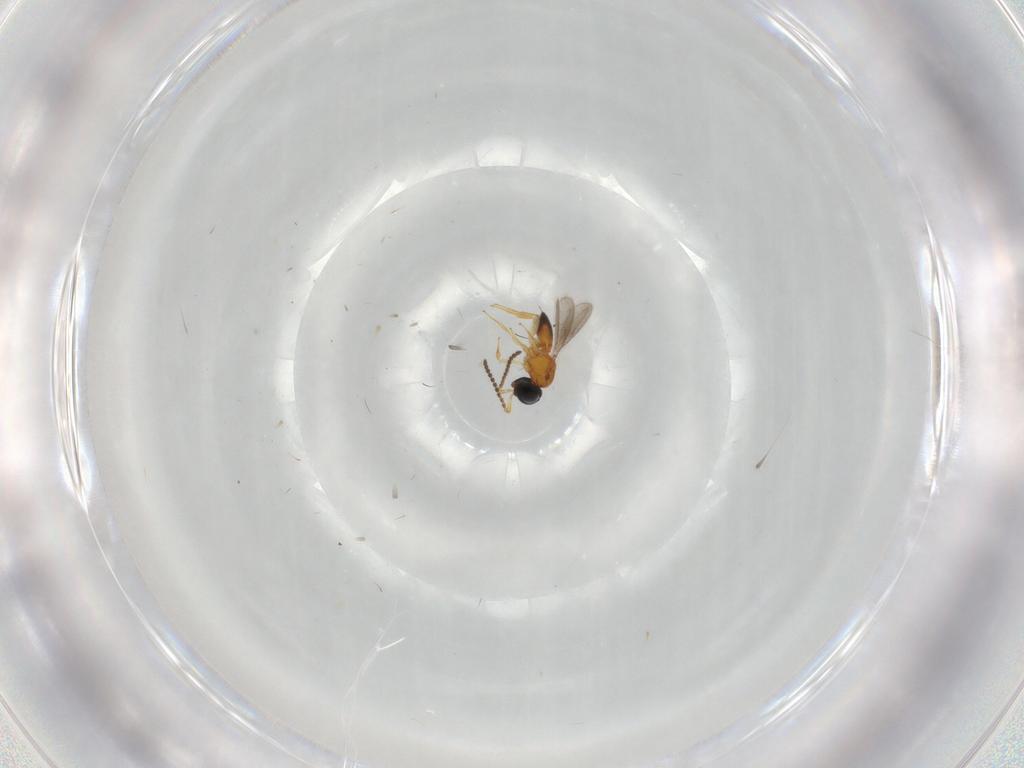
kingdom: Animalia
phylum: Arthropoda
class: Insecta
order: Hymenoptera
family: Scelionidae
